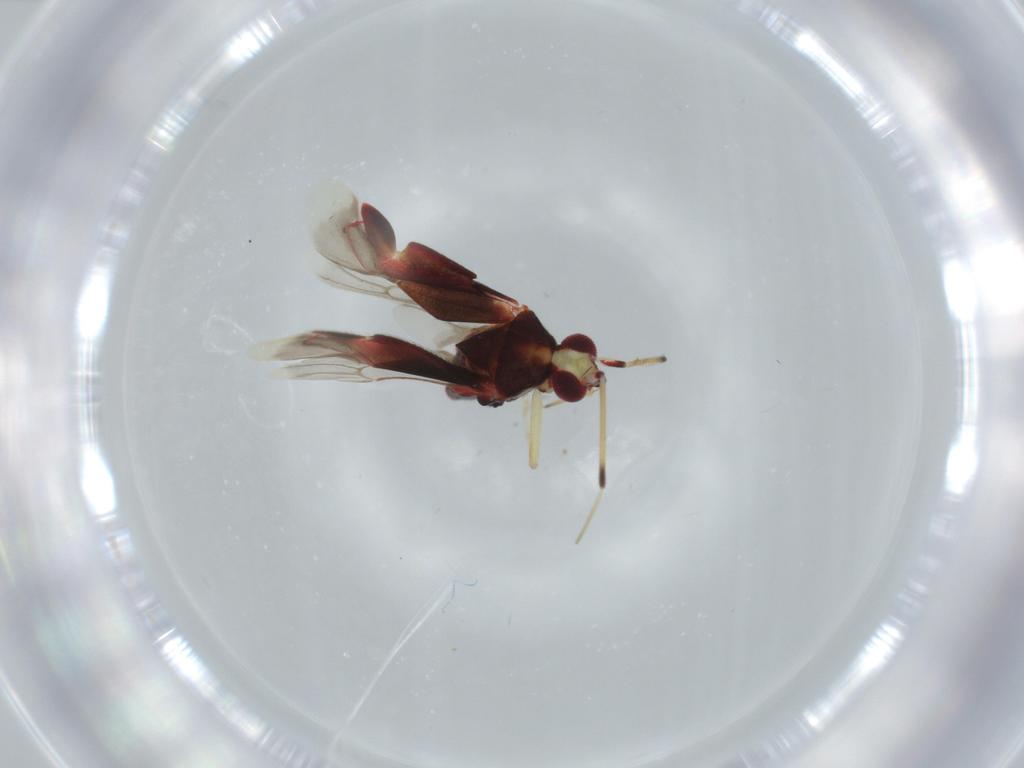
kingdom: Animalia
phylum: Arthropoda
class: Insecta
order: Hemiptera
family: Miridae
